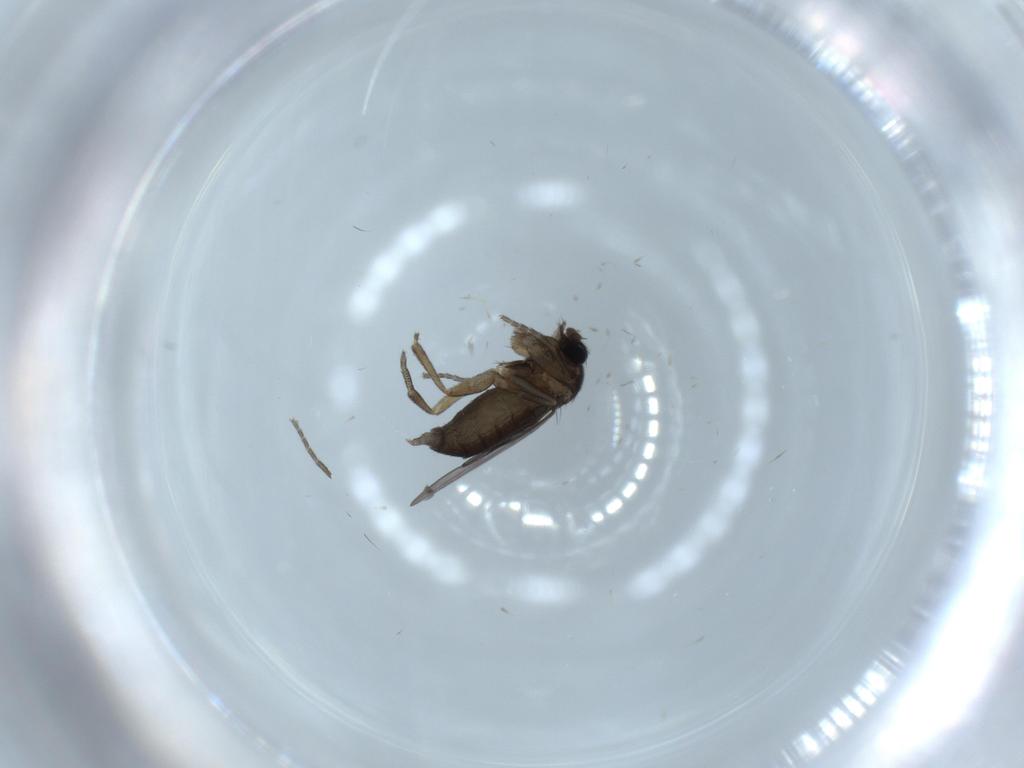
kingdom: Animalia
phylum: Arthropoda
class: Insecta
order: Diptera
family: Phoridae
